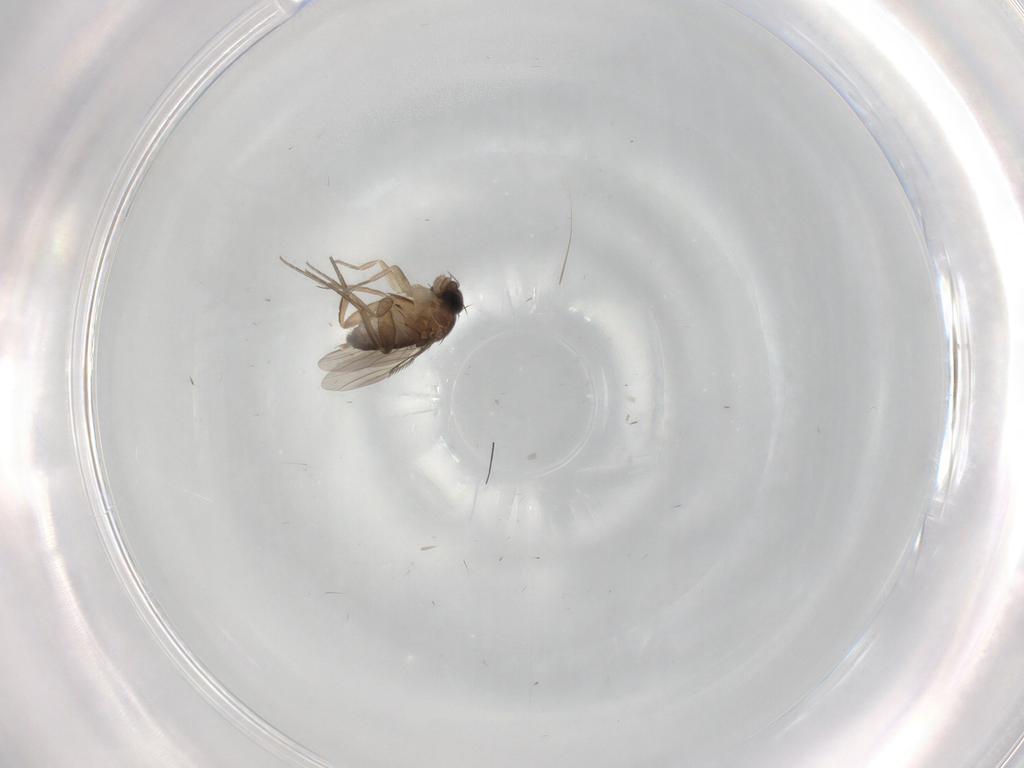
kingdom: Animalia
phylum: Arthropoda
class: Insecta
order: Diptera
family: Phoridae
